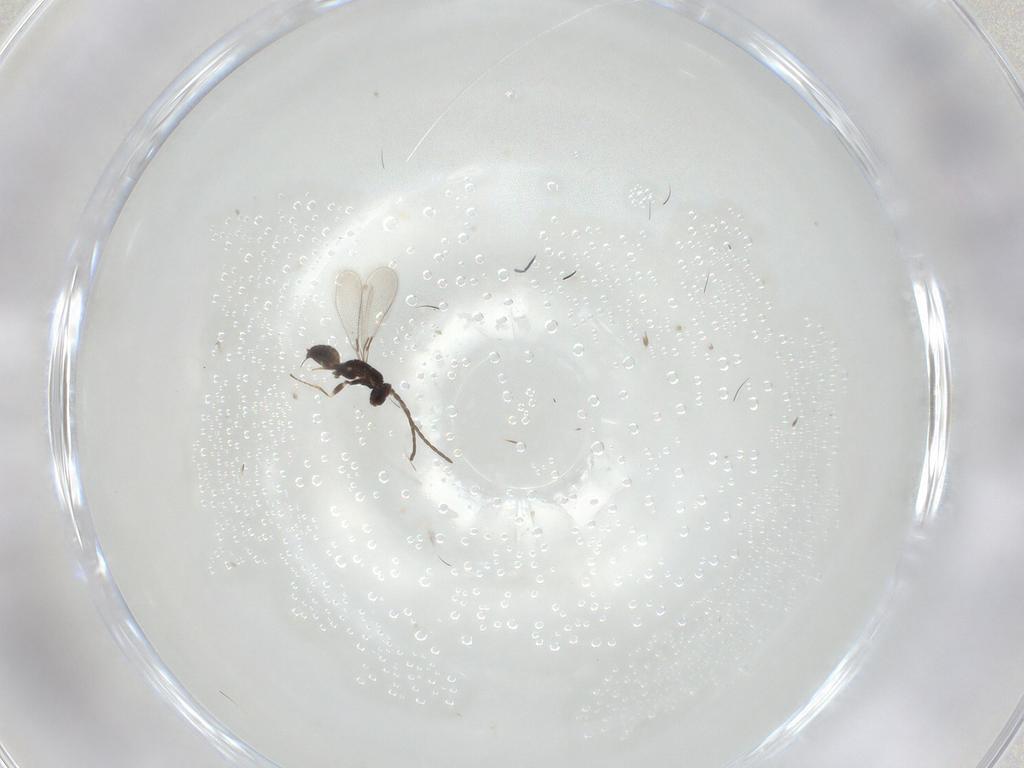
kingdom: Animalia
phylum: Arthropoda
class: Insecta
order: Hymenoptera
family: Mymaridae
